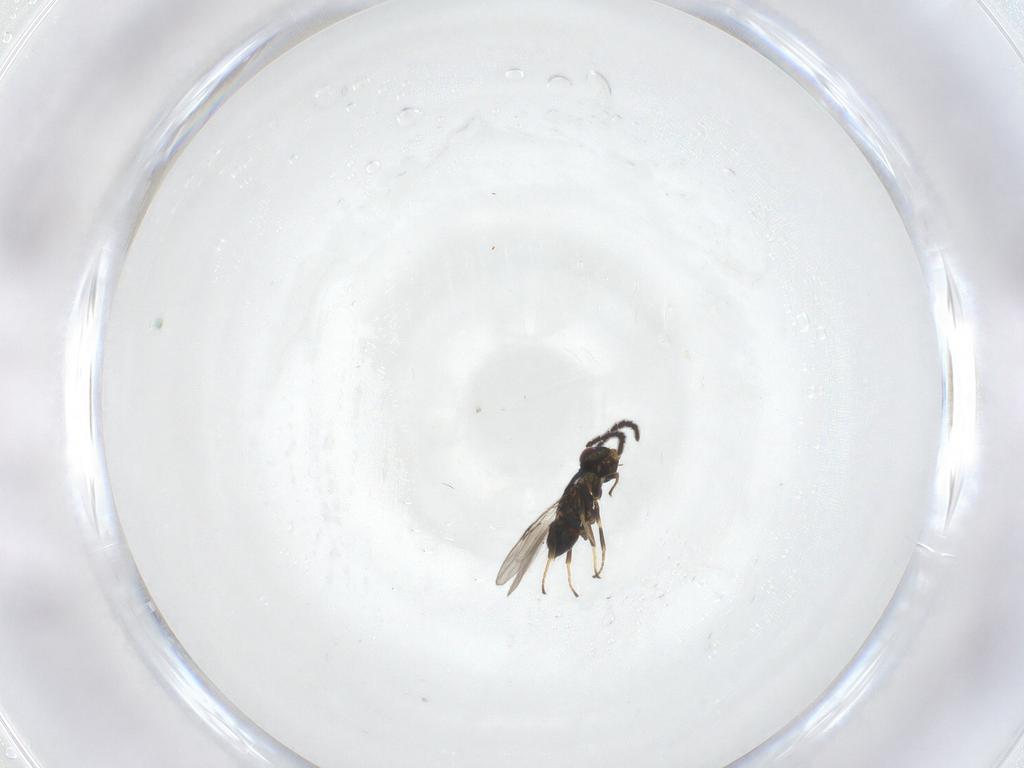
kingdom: Animalia
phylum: Arthropoda
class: Insecta
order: Hymenoptera
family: Encyrtidae
